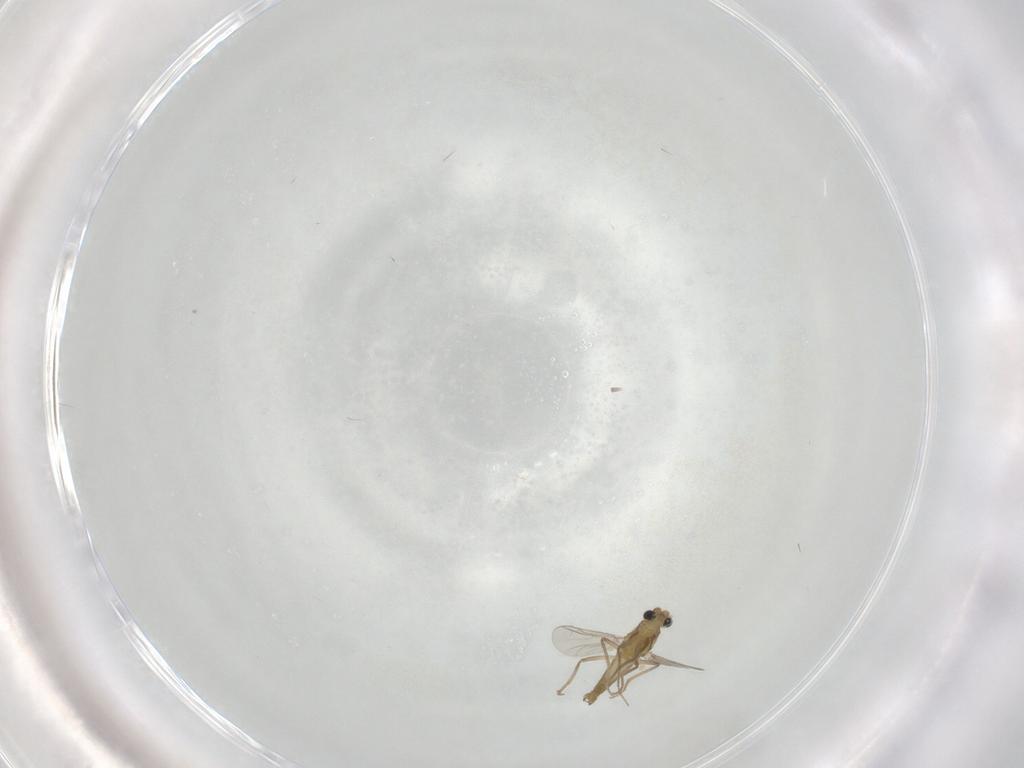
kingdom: Animalia
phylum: Arthropoda
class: Insecta
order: Diptera
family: Chironomidae
